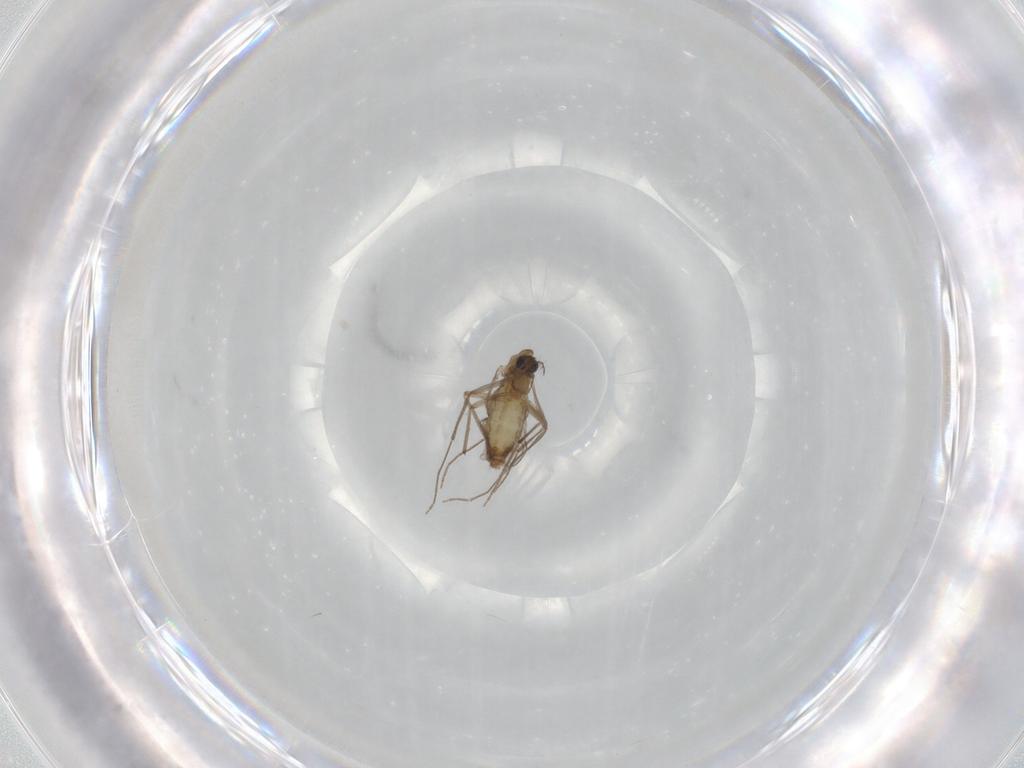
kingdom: Animalia
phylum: Arthropoda
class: Insecta
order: Diptera
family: Chironomidae
